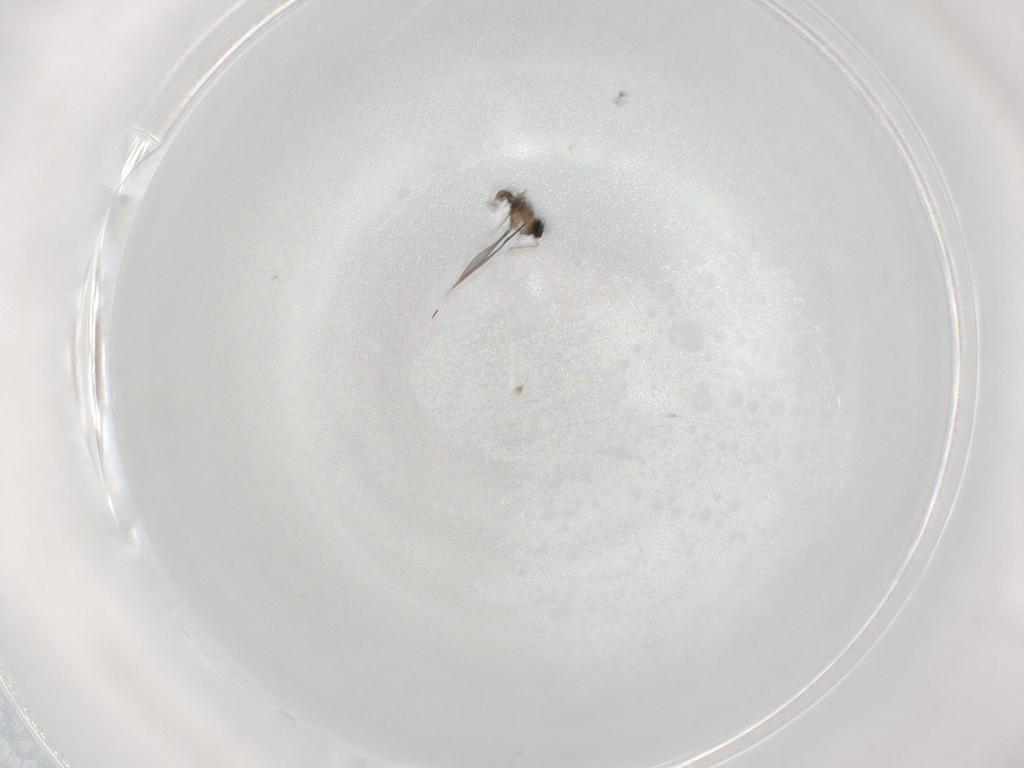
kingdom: Animalia
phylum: Arthropoda
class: Insecta
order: Diptera
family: Cecidomyiidae
